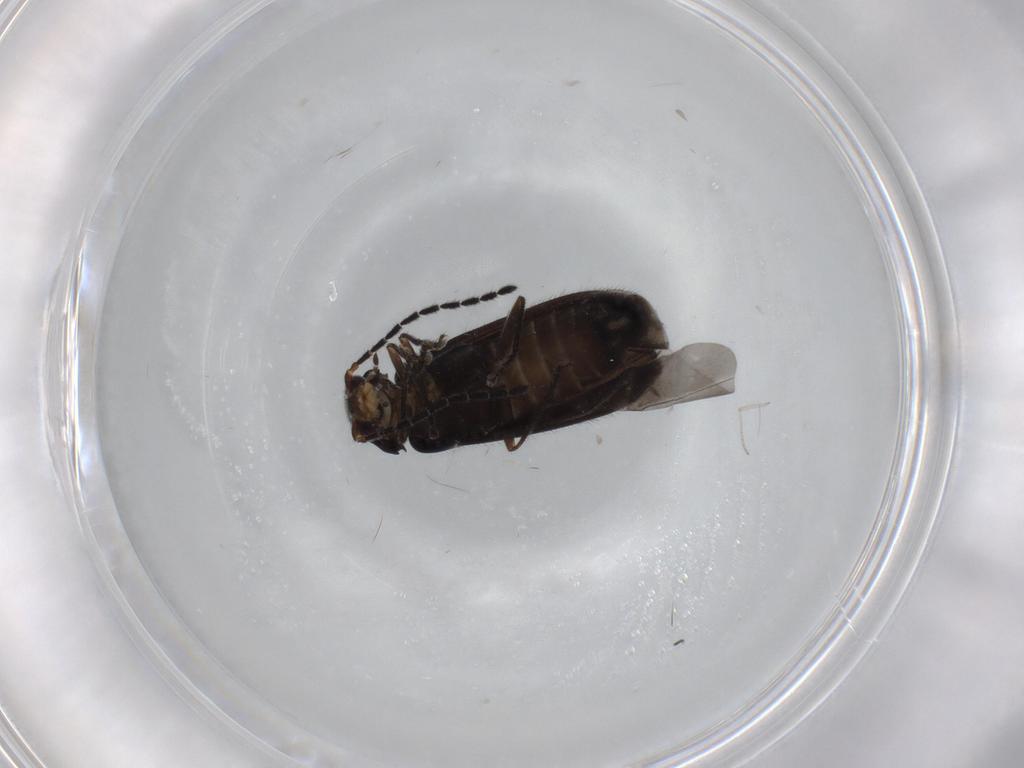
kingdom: Animalia
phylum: Arthropoda
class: Insecta
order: Coleoptera
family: Cantharidae
